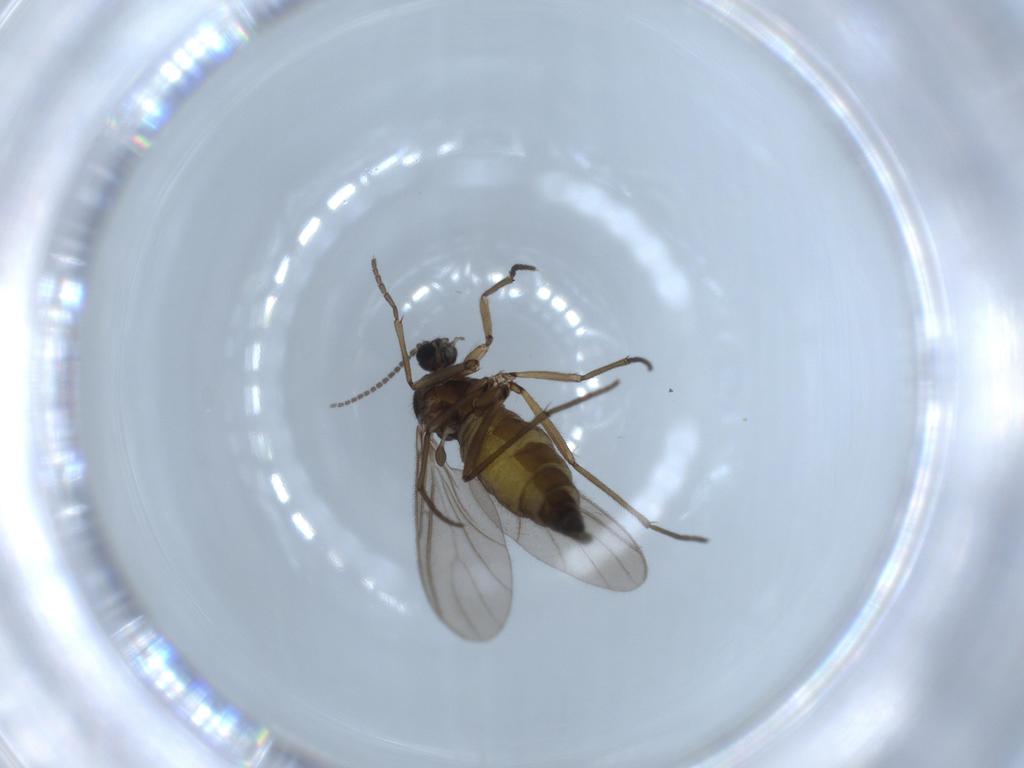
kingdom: Animalia
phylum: Arthropoda
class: Insecta
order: Diptera
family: Sciaridae
